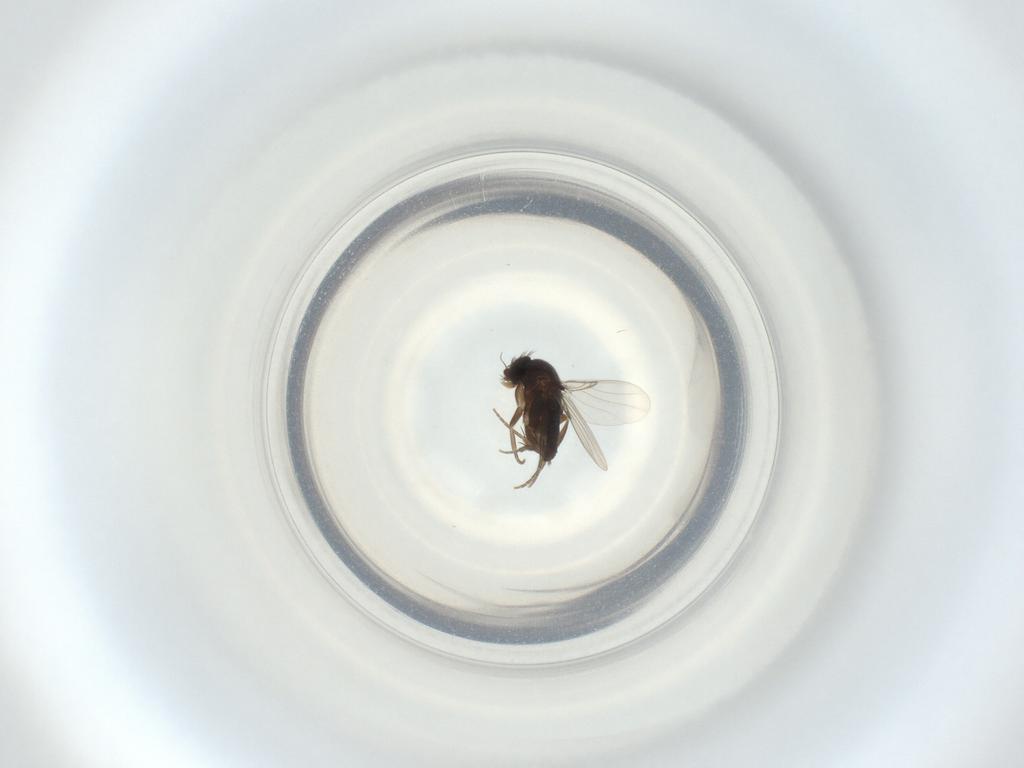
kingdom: Animalia
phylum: Arthropoda
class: Insecta
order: Diptera
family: Phoridae
